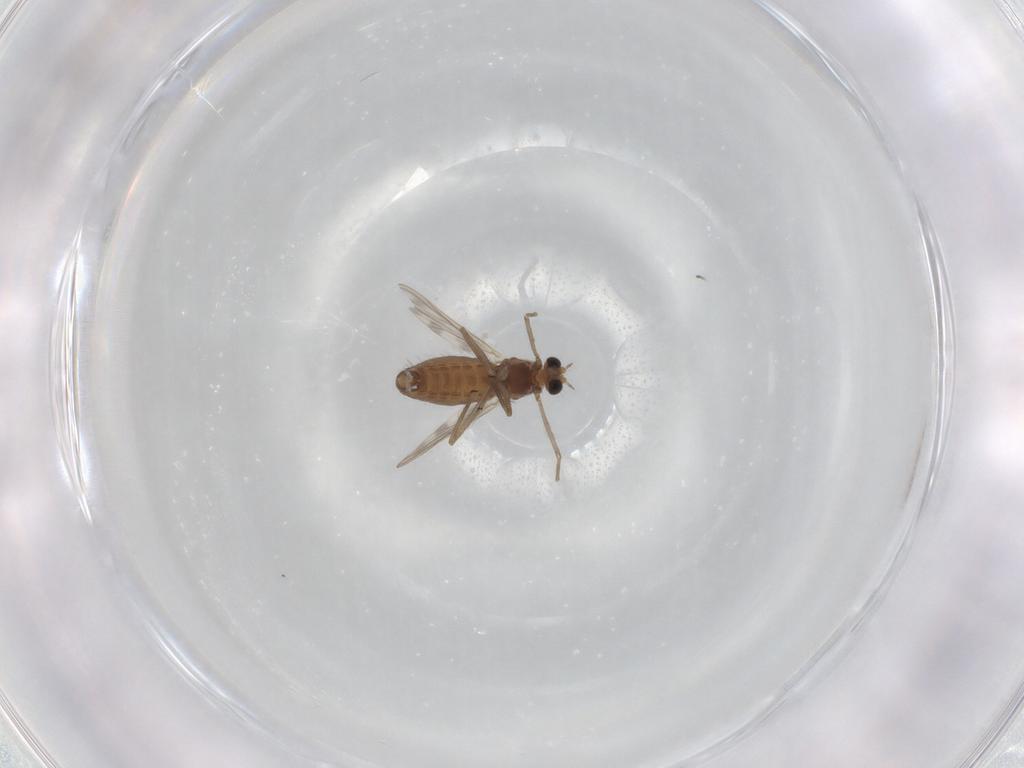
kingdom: Animalia
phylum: Arthropoda
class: Insecta
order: Diptera
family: Chironomidae
